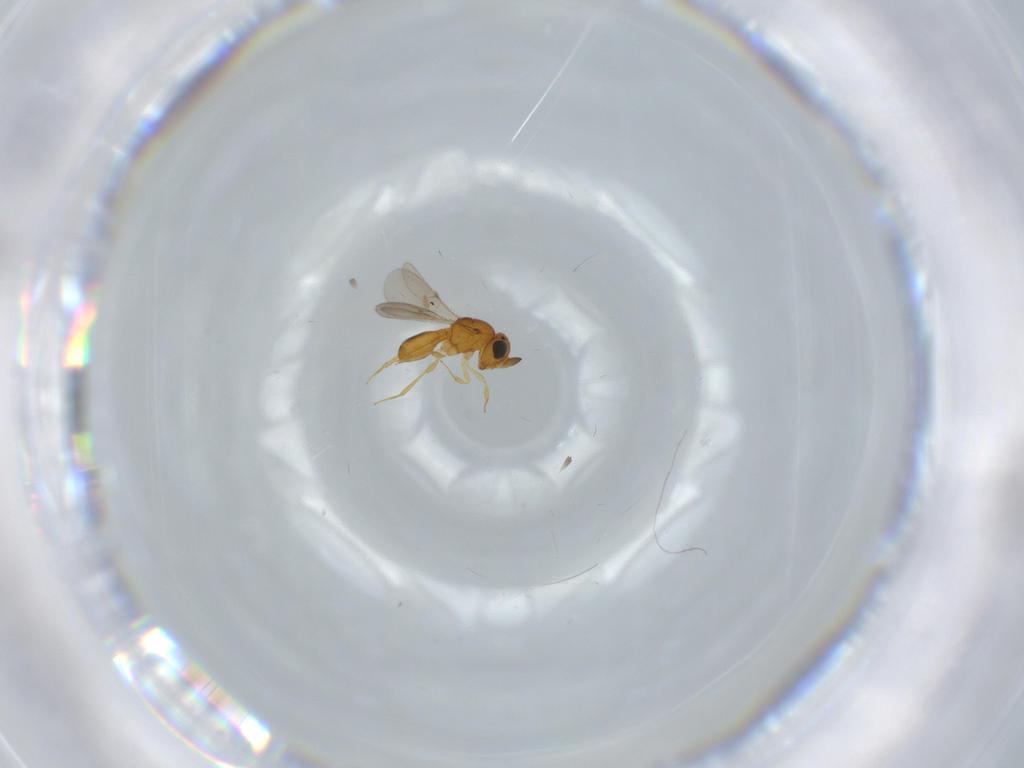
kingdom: Animalia
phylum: Arthropoda
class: Insecta
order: Hymenoptera
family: Scelionidae
